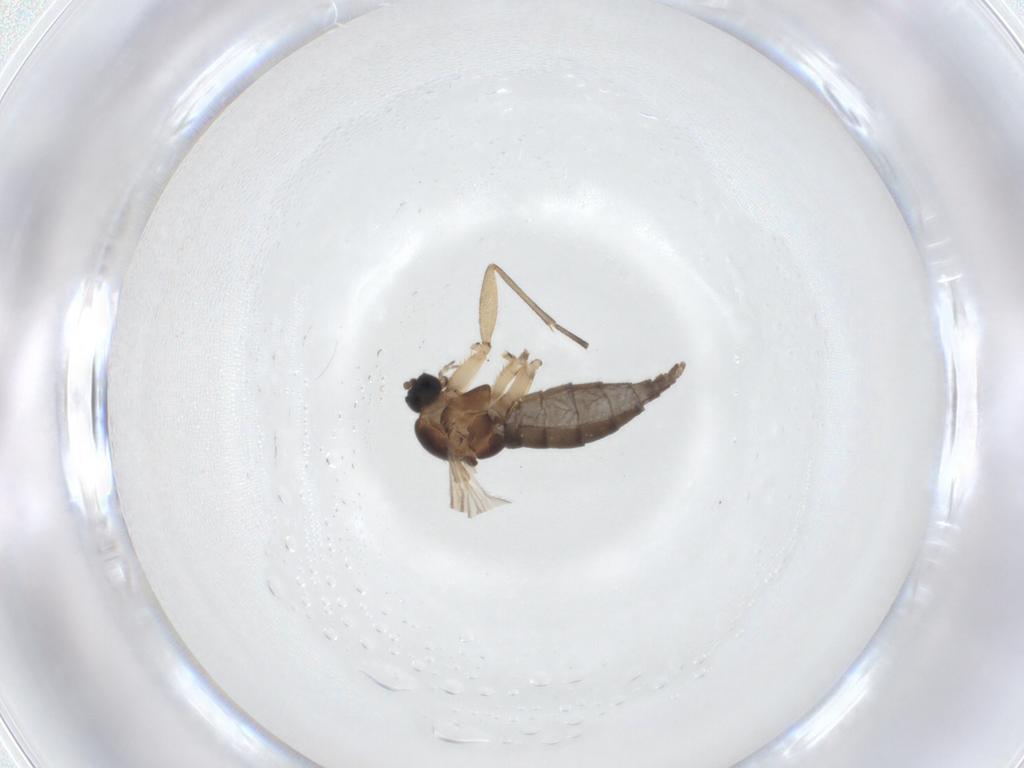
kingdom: Animalia
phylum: Arthropoda
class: Insecta
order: Diptera
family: Sciaridae
